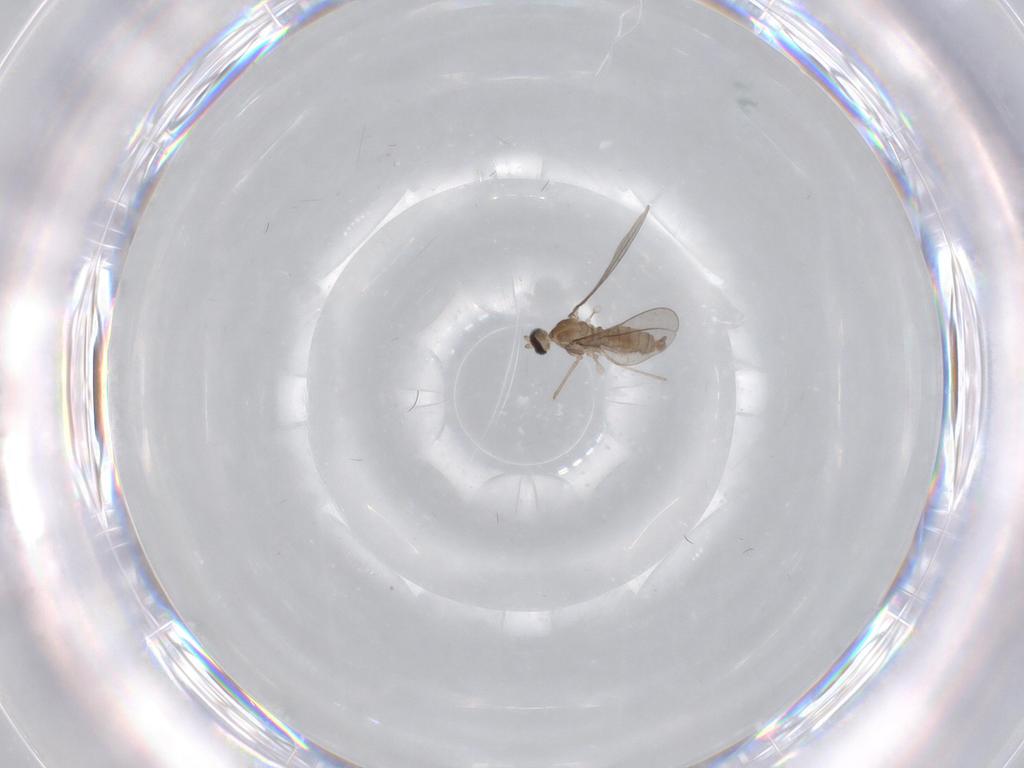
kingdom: Animalia
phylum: Arthropoda
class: Insecta
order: Diptera
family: Cecidomyiidae
